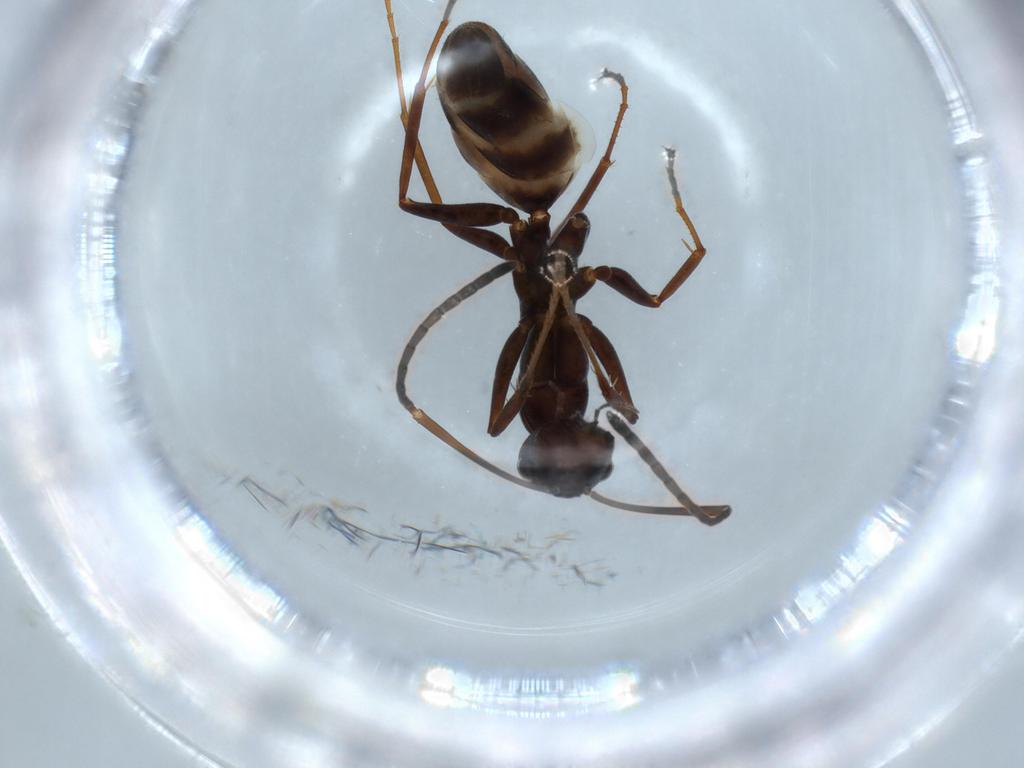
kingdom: Animalia
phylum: Arthropoda
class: Insecta
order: Hymenoptera
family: Formicidae
